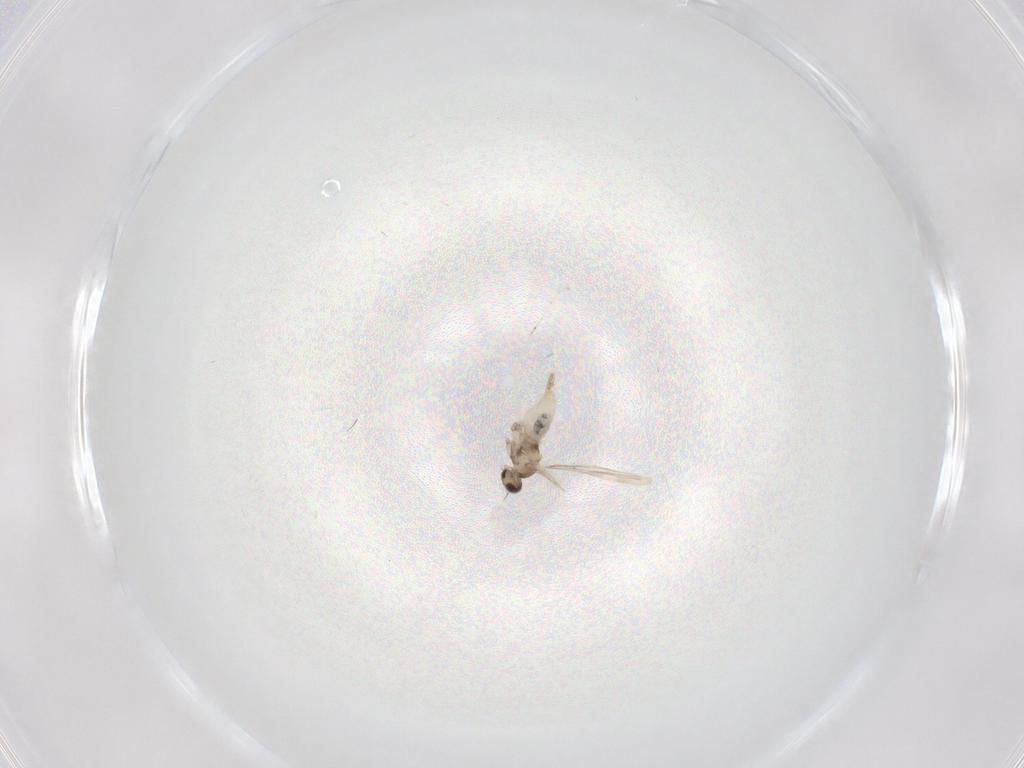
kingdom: Animalia
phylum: Arthropoda
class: Insecta
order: Diptera
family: Cecidomyiidae
